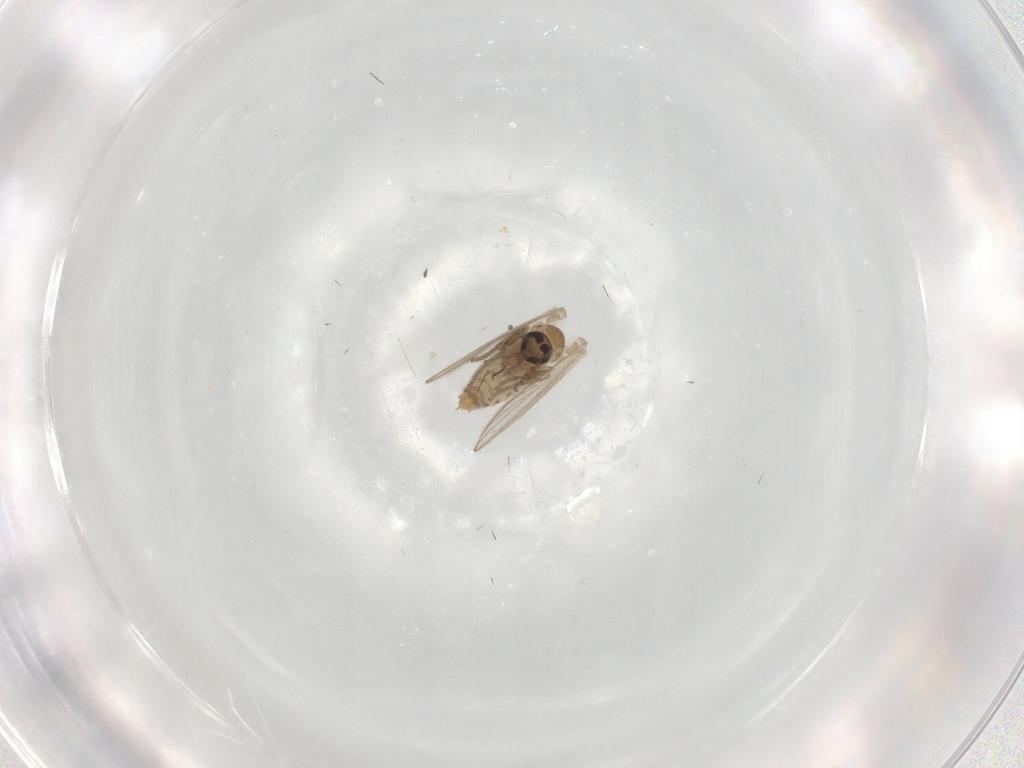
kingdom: Animalia
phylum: Arthropoda
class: Insecta
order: Diptera
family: Psychodidae
